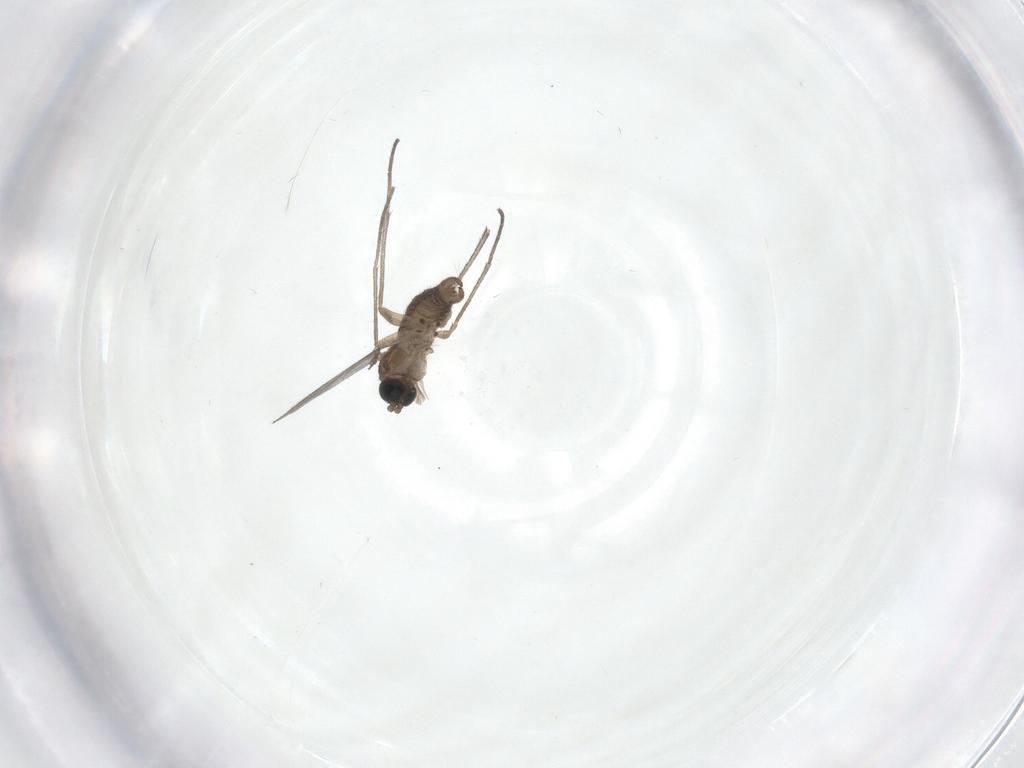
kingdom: Animalia
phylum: Arthropoda
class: Insecta
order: Diptera
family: Sciaridae
